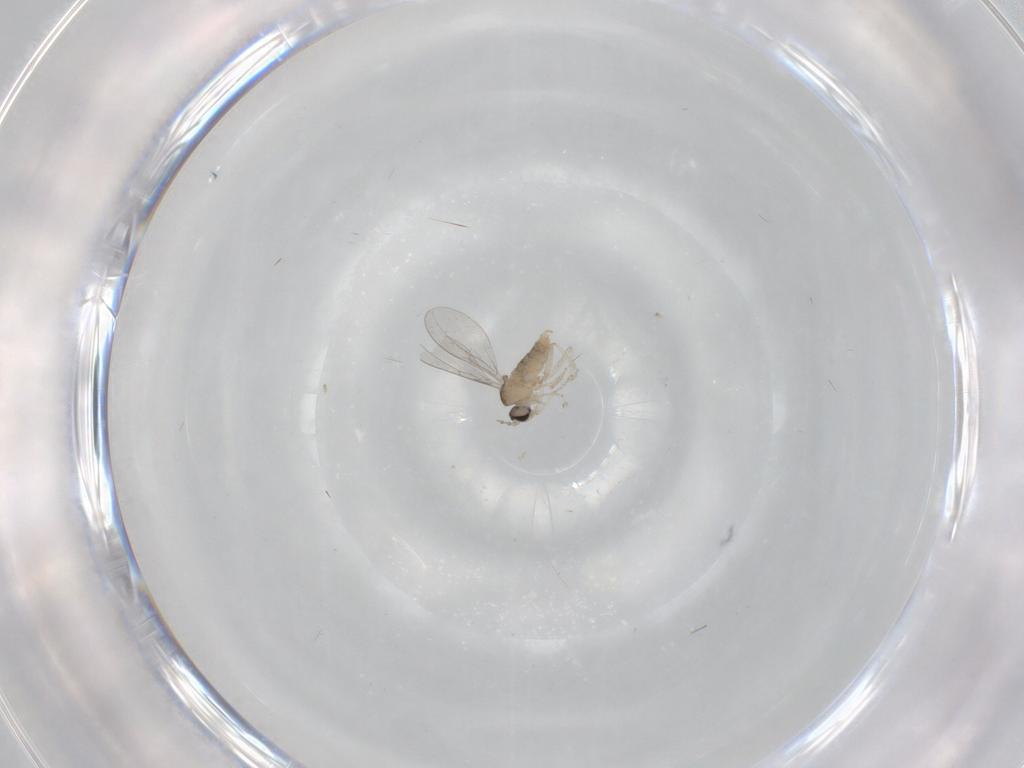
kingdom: Animalia
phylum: Arthropoda
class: Insecta
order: Diptera
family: Cecidomyiidae
